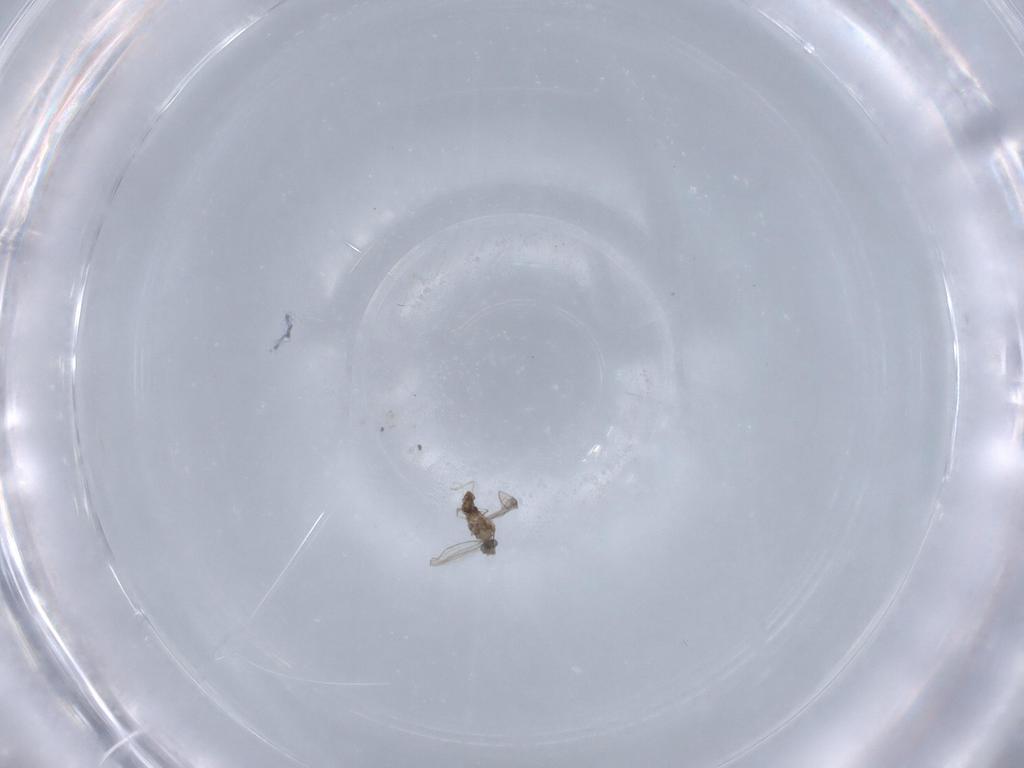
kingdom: Animalia
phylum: Arthropoda
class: Insecta
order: Diptera
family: Cecidomyiidae
